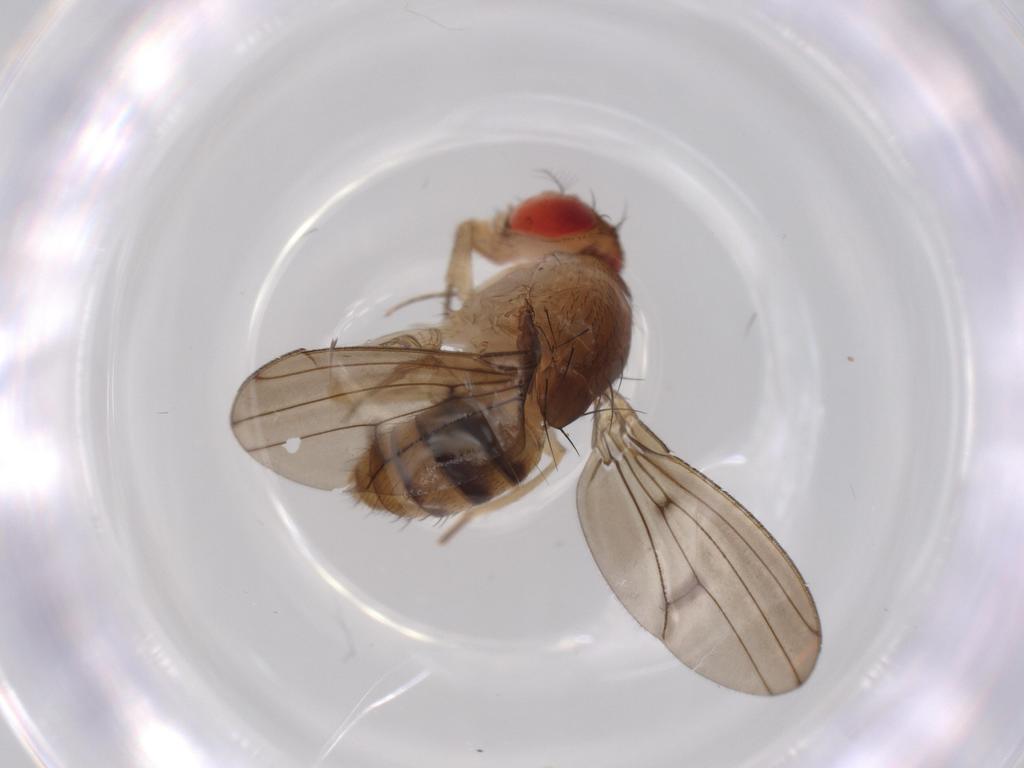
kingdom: Animalia
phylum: Arthropoda
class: Insecta
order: Diptera
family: Drosophilidae
